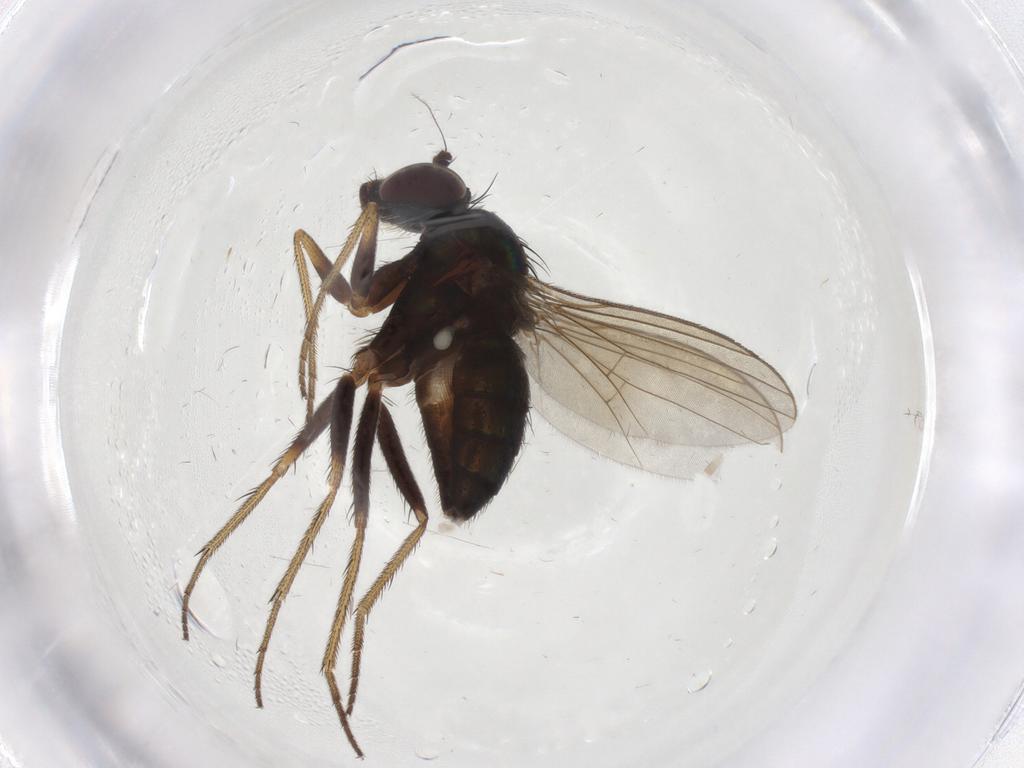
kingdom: Animalia
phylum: Arthropoda
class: Insecta
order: Diptera
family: Chironomidae
